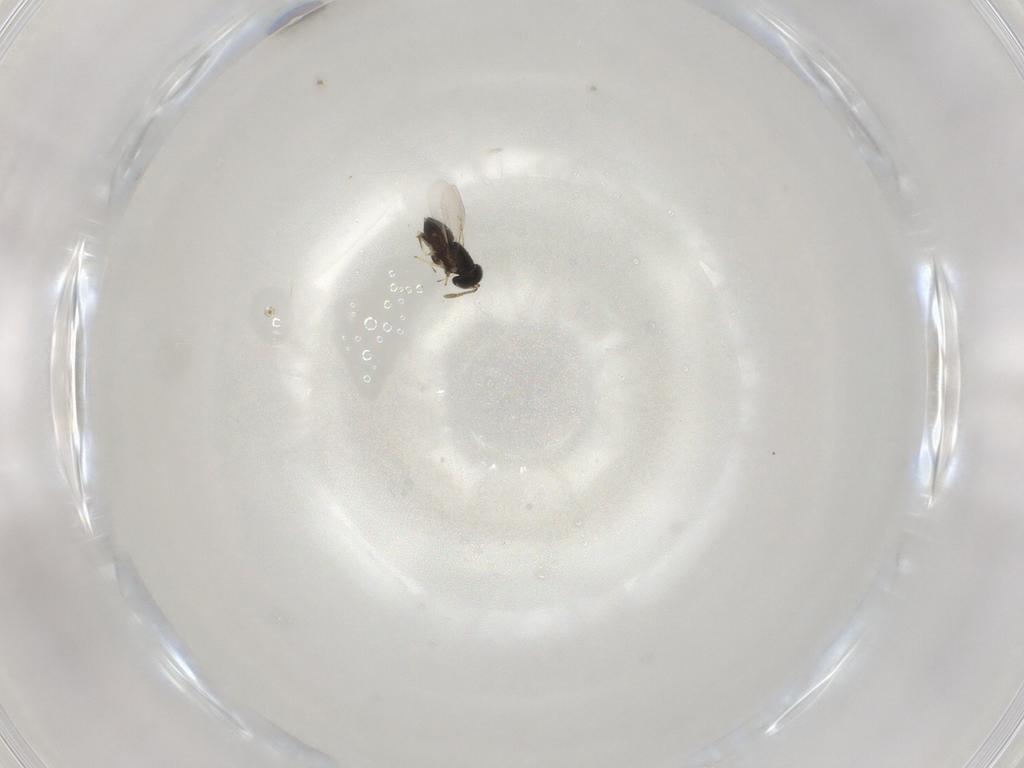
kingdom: Animalia
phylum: Arthropoda
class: Insecta
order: Hymenoptera
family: Pteromalidae
